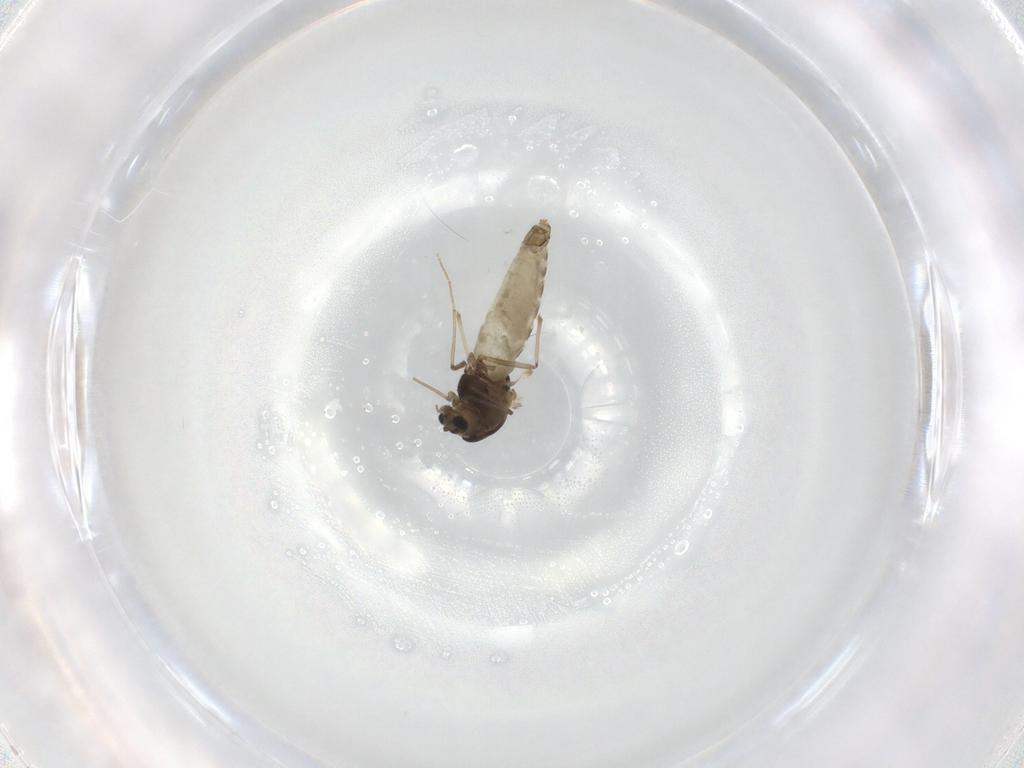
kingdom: Animalia
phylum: Arthropoda
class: Insecta
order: Diptera
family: Chironomidae
